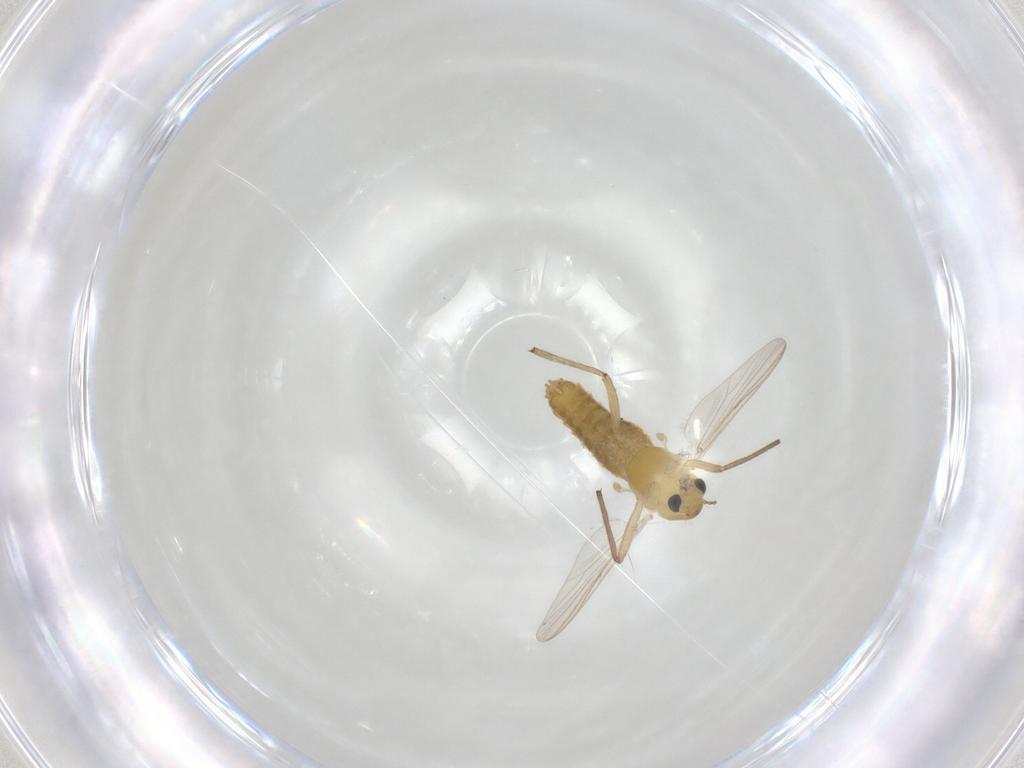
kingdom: Animalia
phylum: Arthropoda
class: Insecta
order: Diptera
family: Chironomidae
